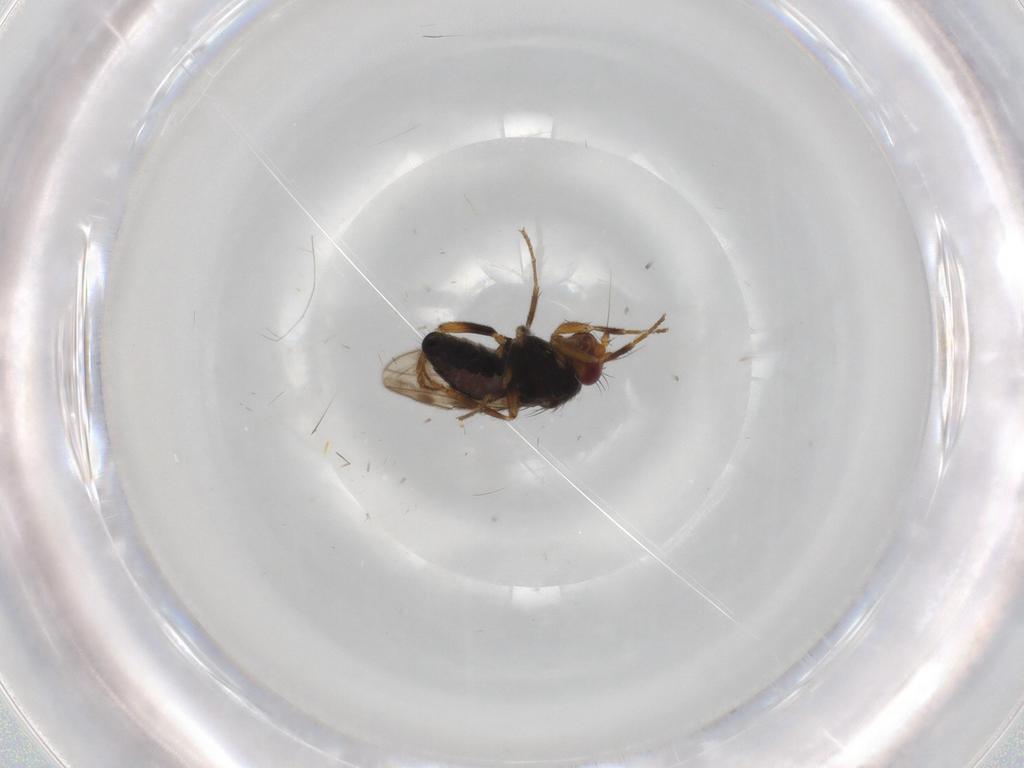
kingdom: Animalia
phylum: Arthropoda
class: Insecta
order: Diptera
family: Sphaeroceridae
